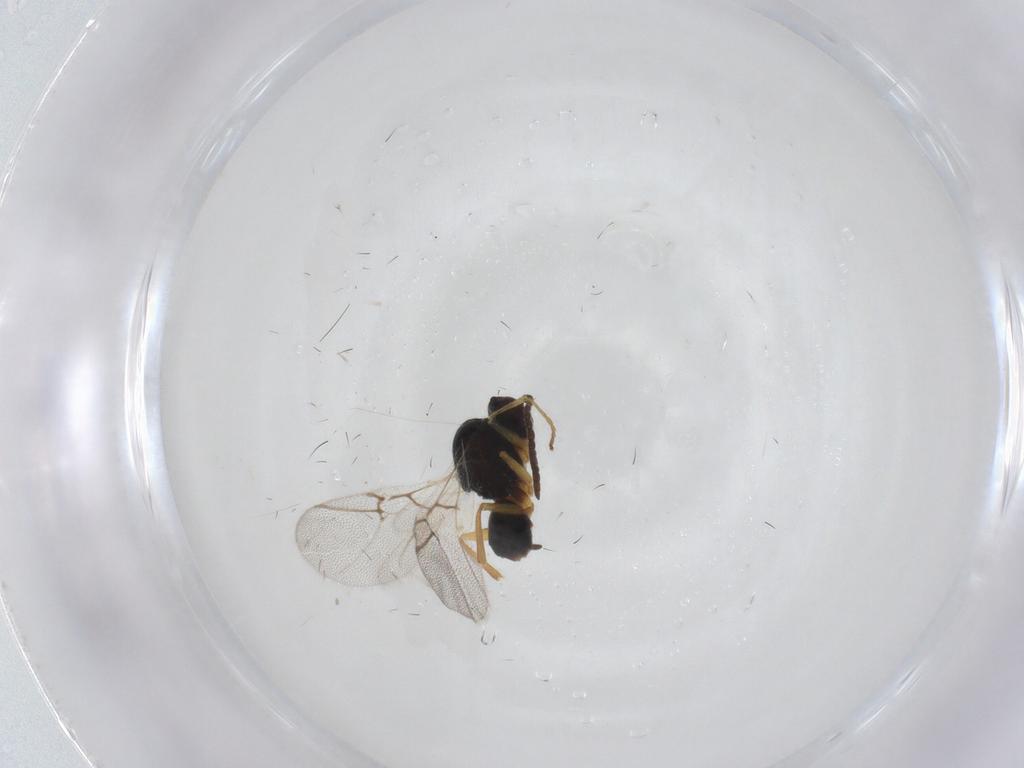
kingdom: Animalia
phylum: Arthropoda
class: Insecta
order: Hymenoptera
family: Cynipidae
